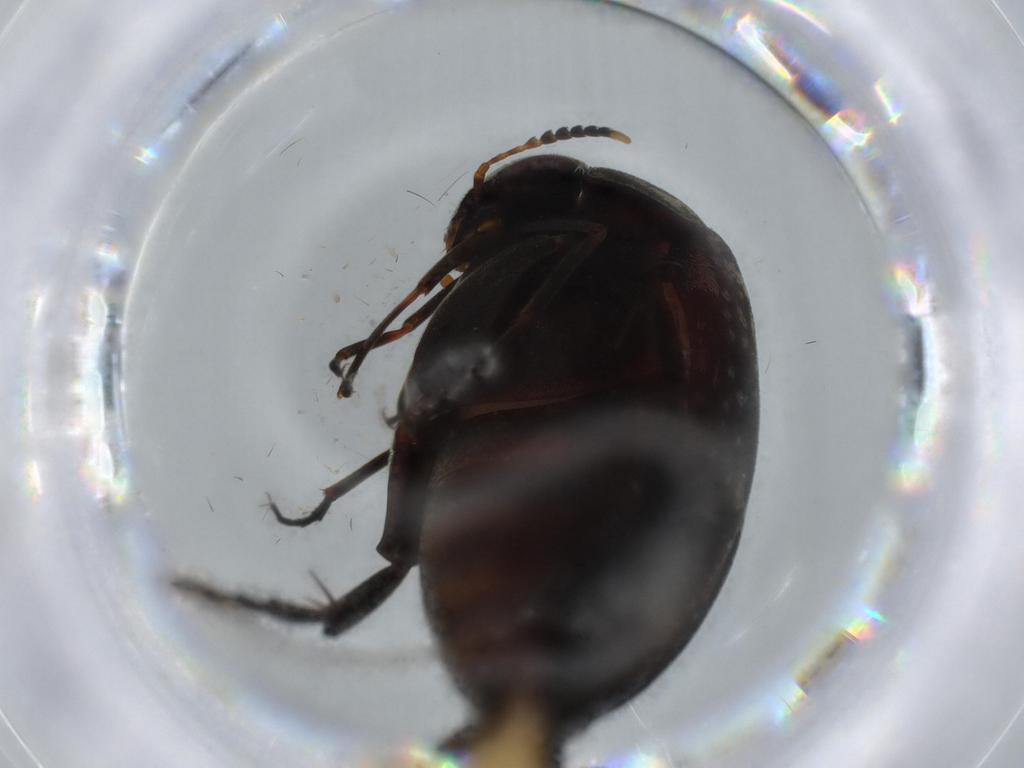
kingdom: Animalia
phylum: Arthropoda
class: Insecta
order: Coleoptera
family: Mordellidae
